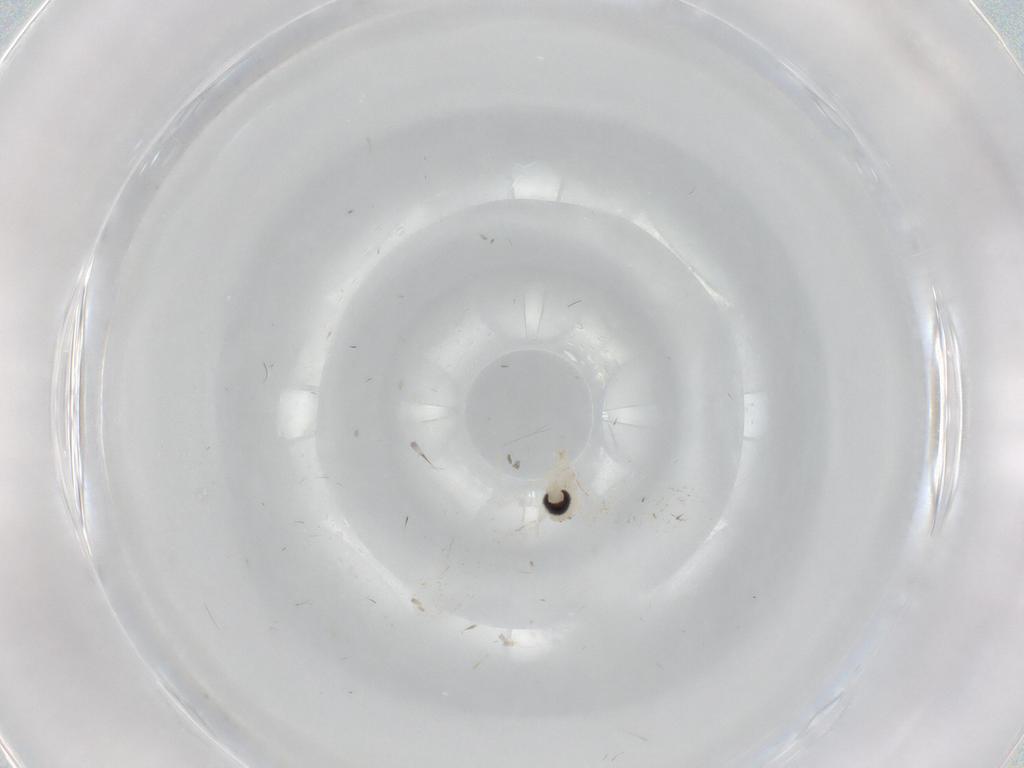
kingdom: Animalia
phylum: Arthropoda
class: Insecta
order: Diptera
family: Cecidomyiidae
